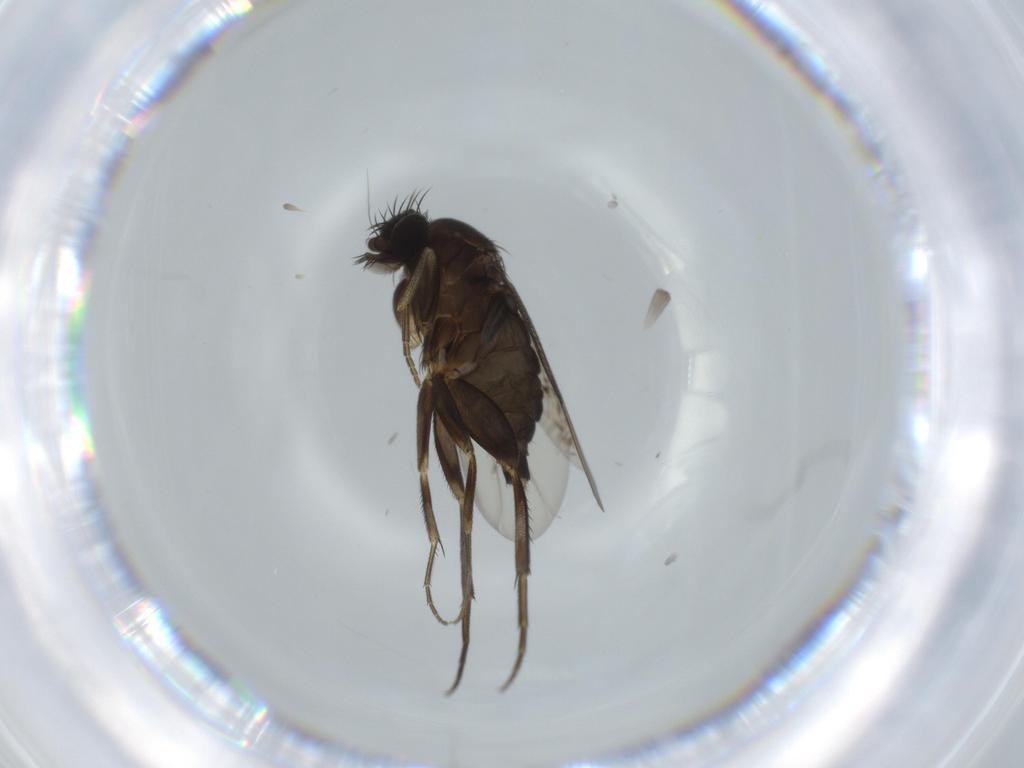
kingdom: Animalia
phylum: Arthropoda
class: Insecta
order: Diptera
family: Phoridae
